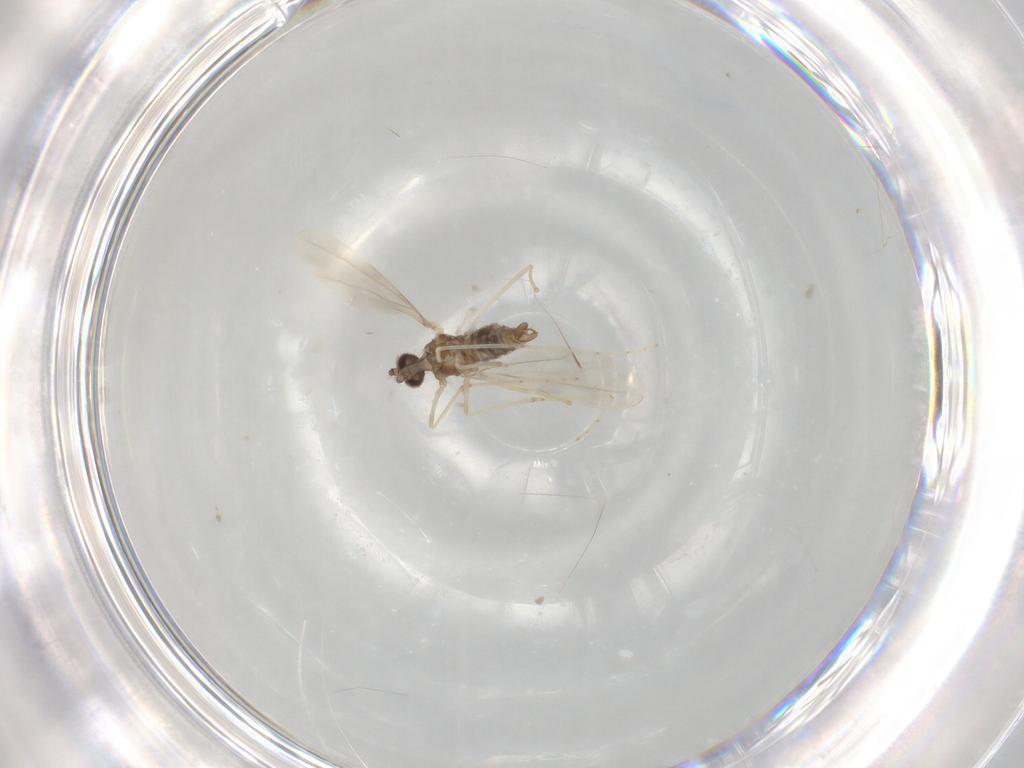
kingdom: Animalia
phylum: Arthropoda
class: Insecta
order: Diptera
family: Cecidomyiidae
